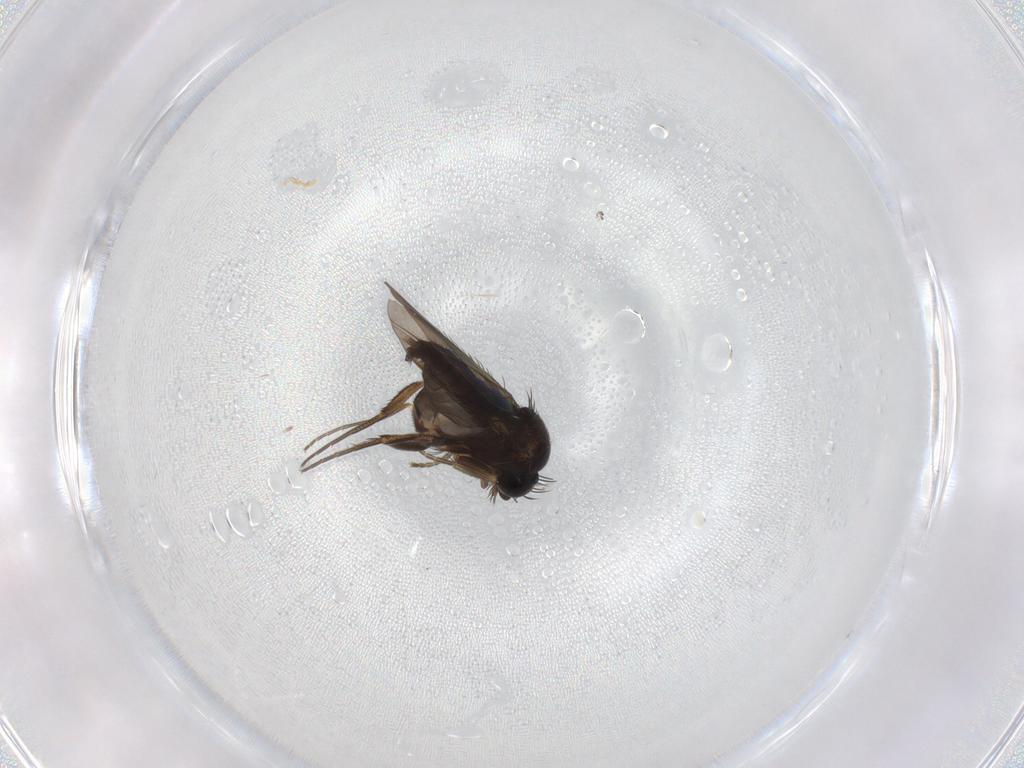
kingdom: Animalia
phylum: Arthropoda
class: Insecta
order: Diptera
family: Phoridae
